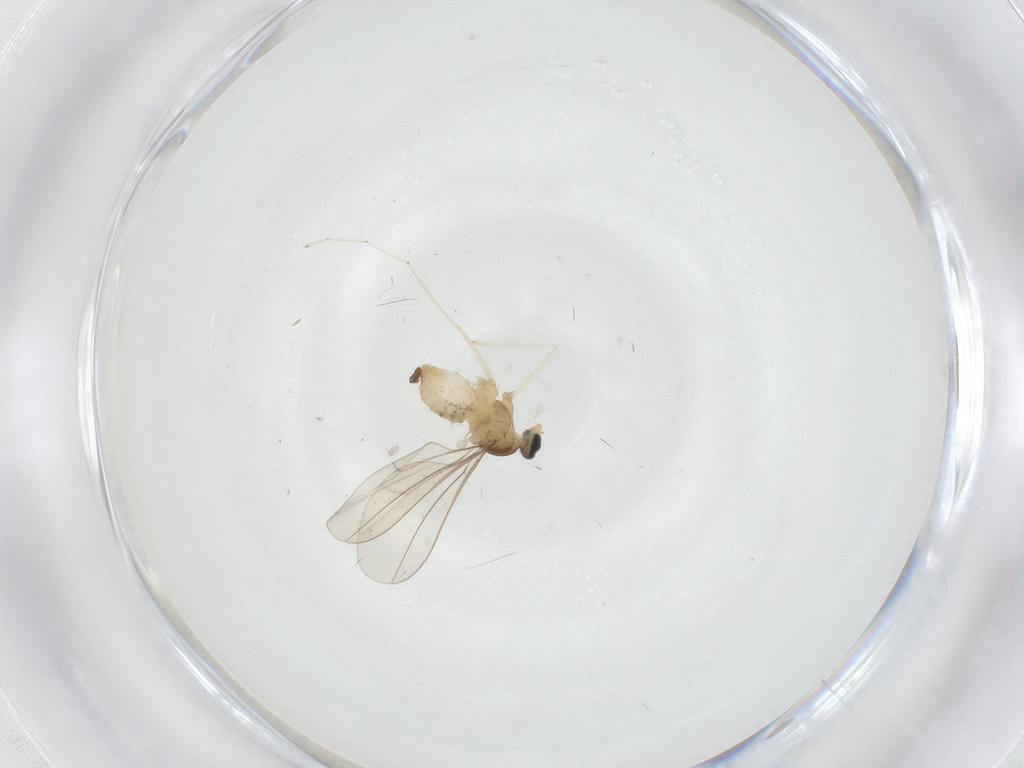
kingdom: Animalia
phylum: Arthropoda
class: Insecta
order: Diptera
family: Cecidomyiidae
